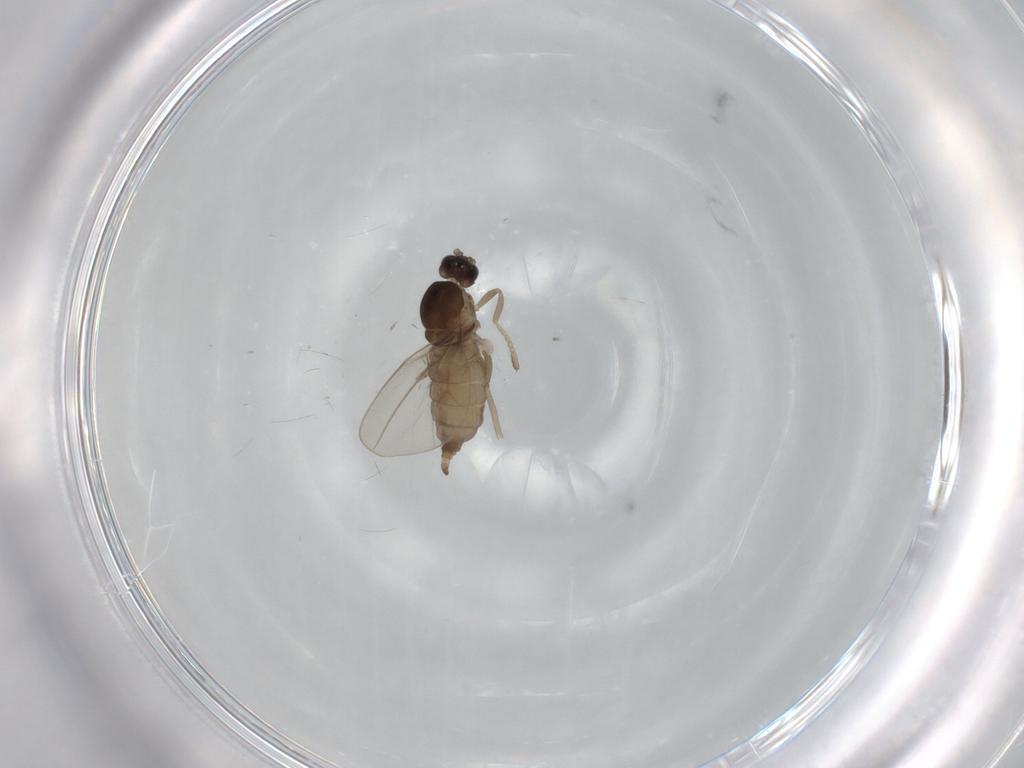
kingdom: Animalia
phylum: Arthropoda
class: Insecta
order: Diptera
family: Cecidomyiidae
